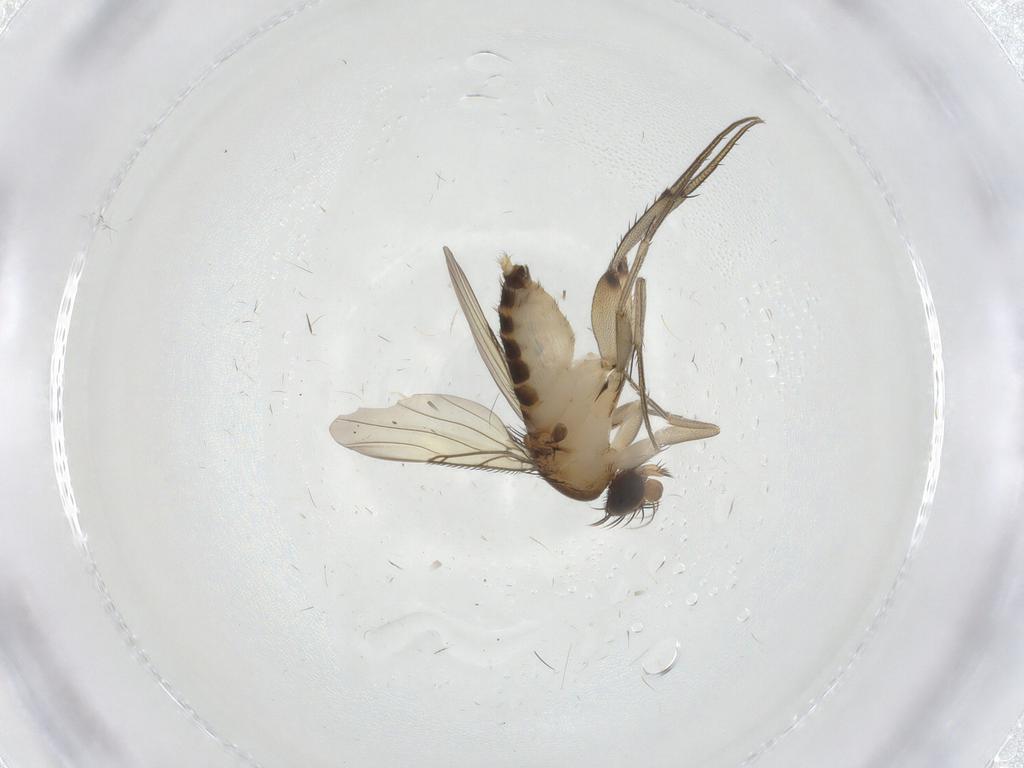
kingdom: Animalia
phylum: Arthropoda
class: Insecta
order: Diptera
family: Phoridae
